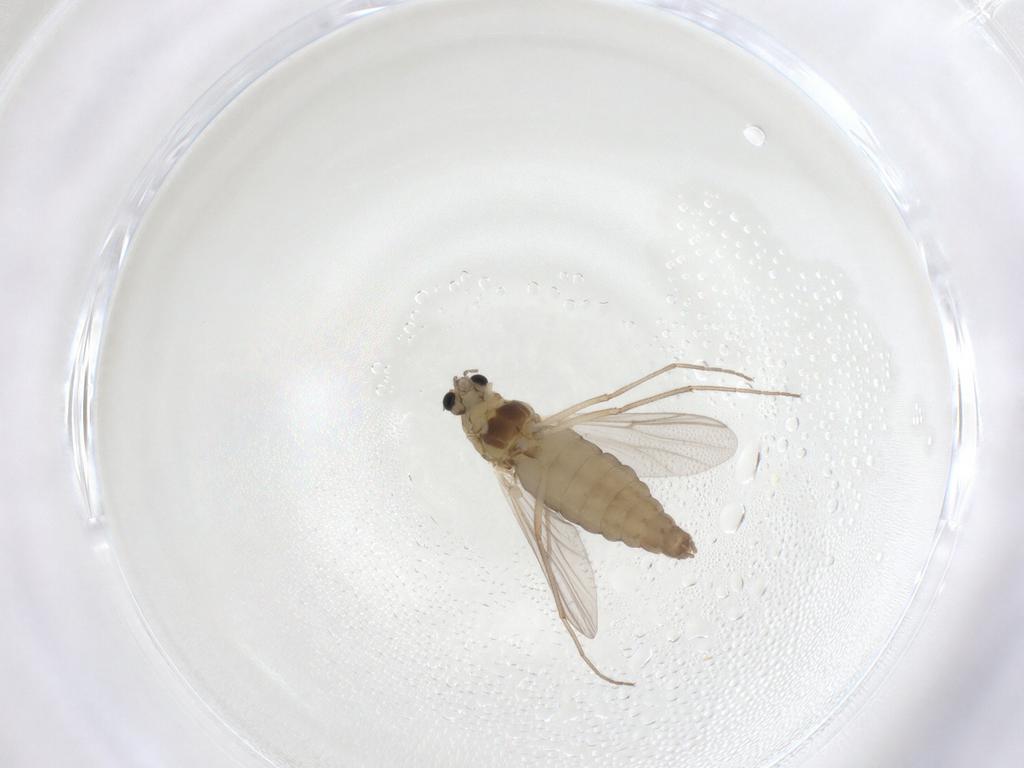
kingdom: Animalia
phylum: Arthropoda
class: Insecta
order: Diptera
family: Chironomidae
